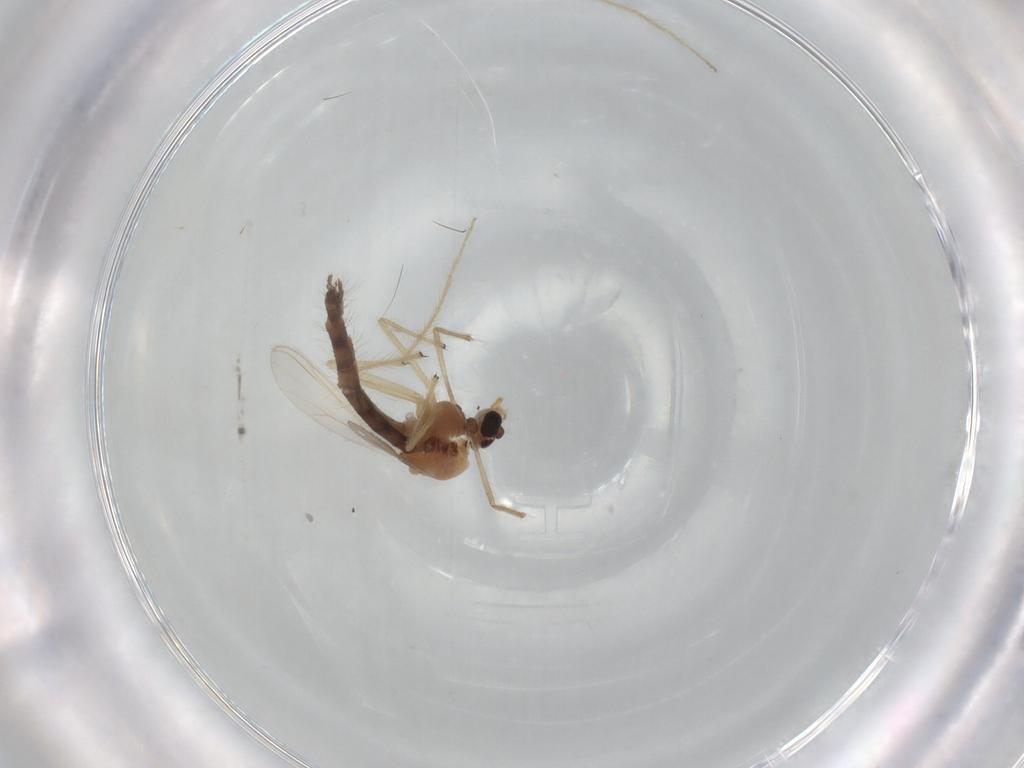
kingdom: Animalia
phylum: Arthropoda
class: Insecta
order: Diptera
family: Chironomidae
